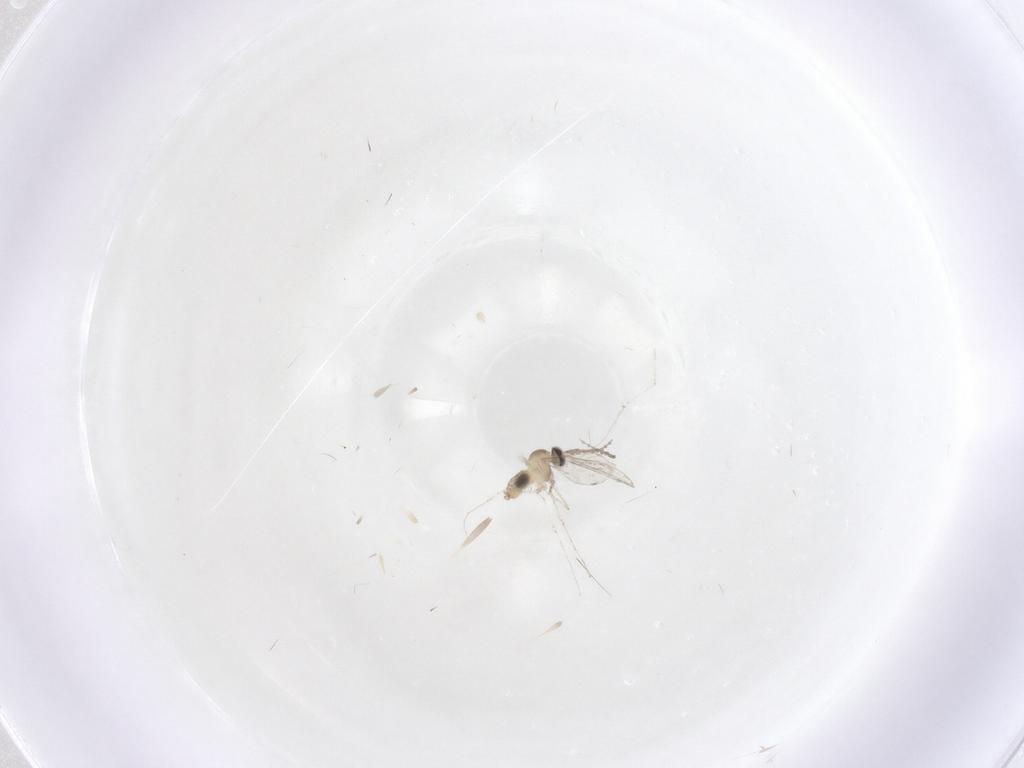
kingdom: Animalia
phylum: Arthropoda
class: Insecta
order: Diptera
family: Cecidomyiidae
